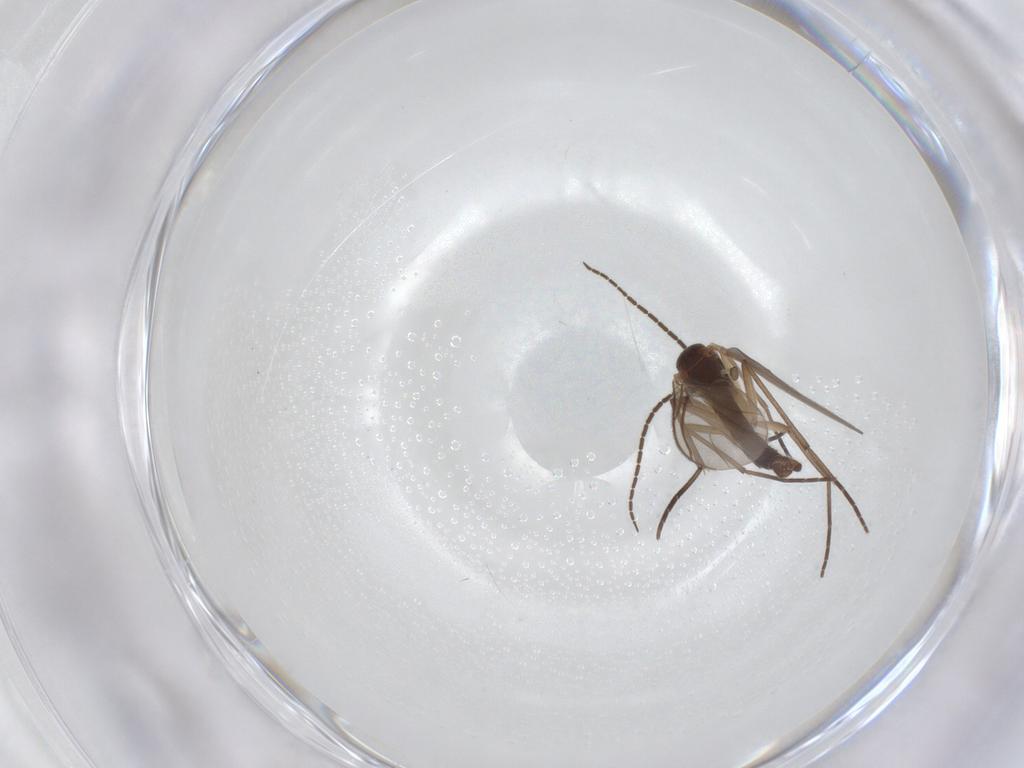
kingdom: Animalia
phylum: Arthropoda
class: Insecta
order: Diptera
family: Sciaridae
